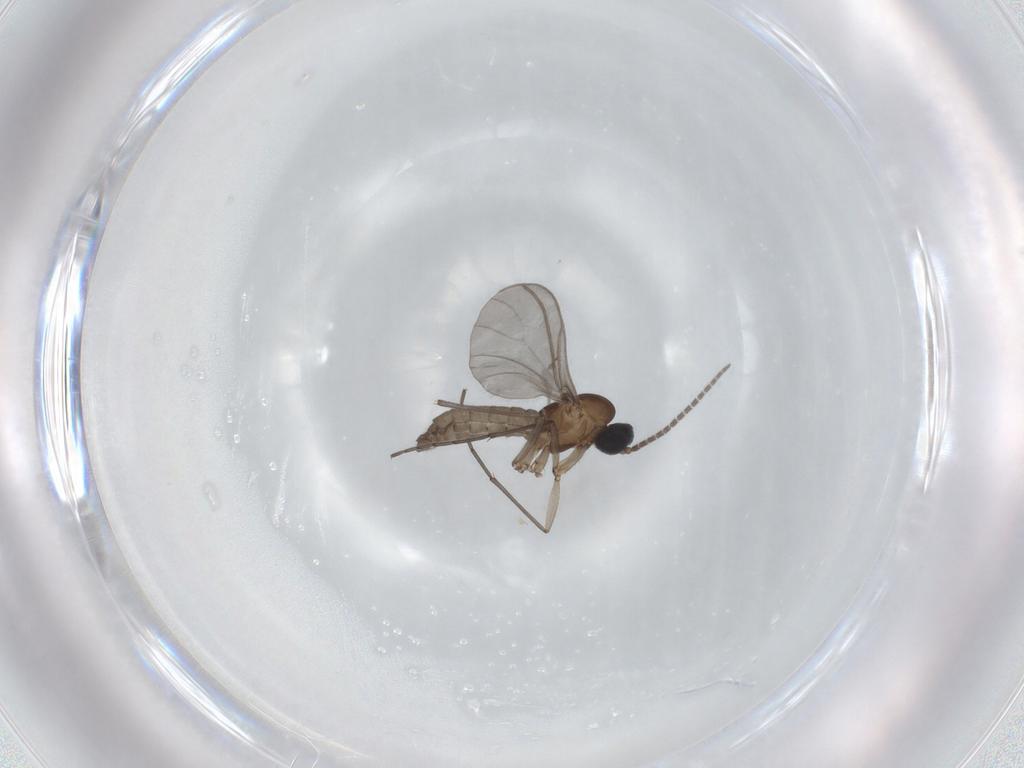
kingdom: Animalia
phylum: Arthropoda
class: Insecta
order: Diptera
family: Sciaridae
